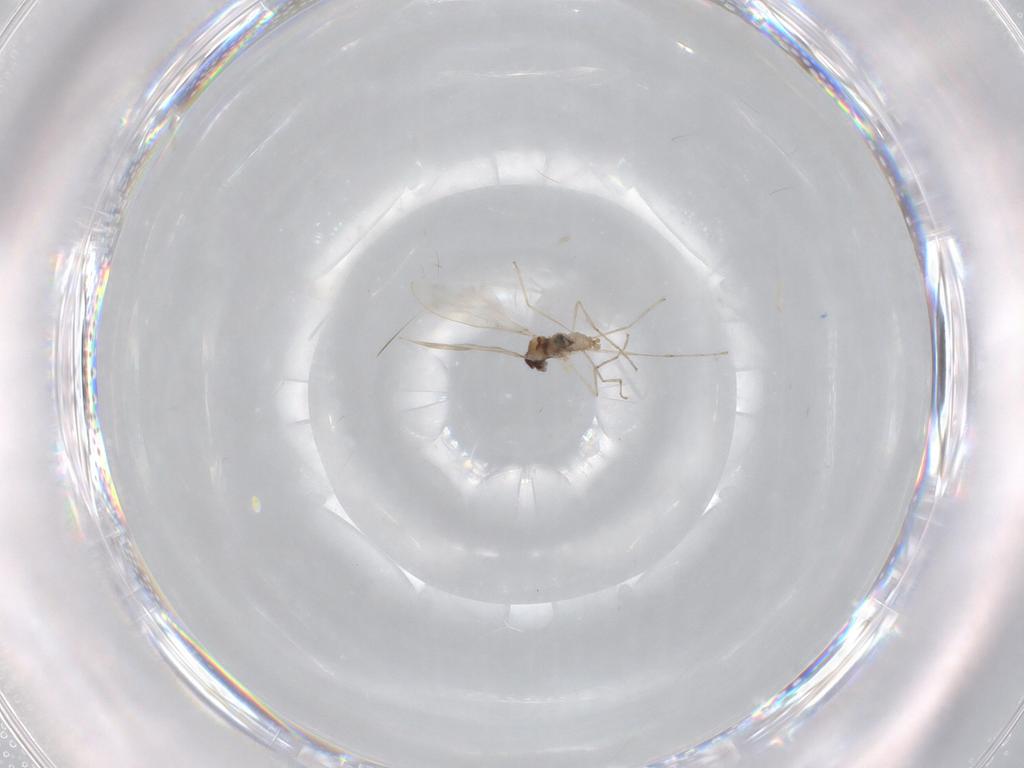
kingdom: Animalia
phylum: Arthropoda
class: Insecta
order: Diptera
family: Cecidomyiidae
